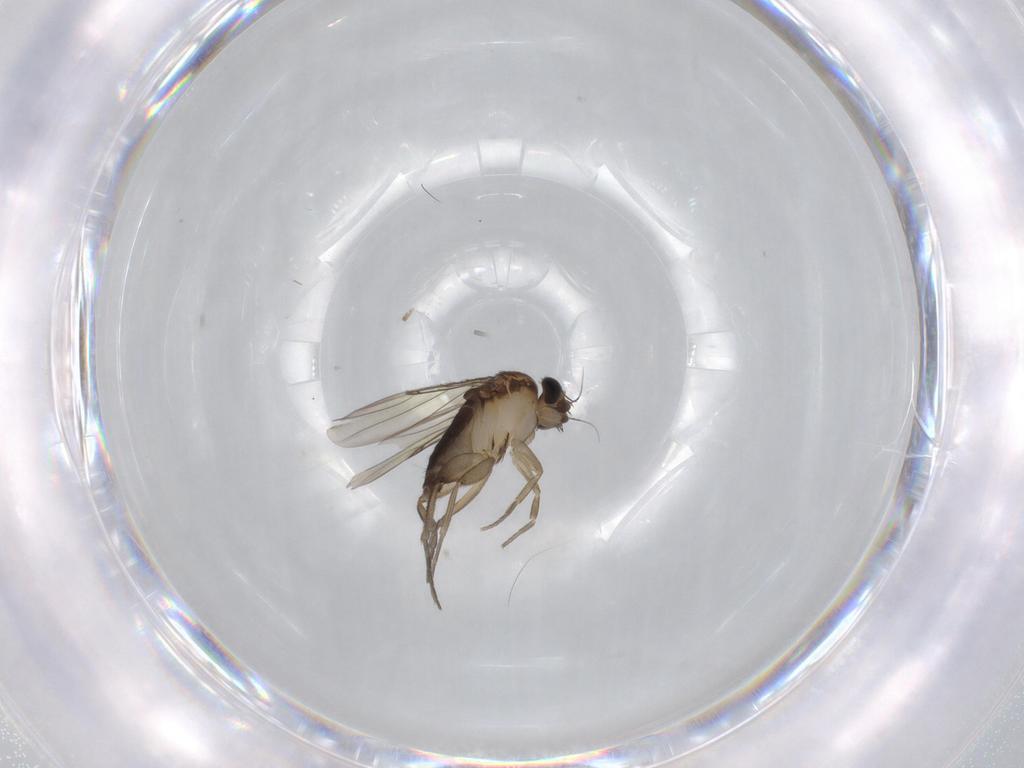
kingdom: Animalia
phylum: Arthropoda
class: Insecta
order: Diptera
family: Phoridae
